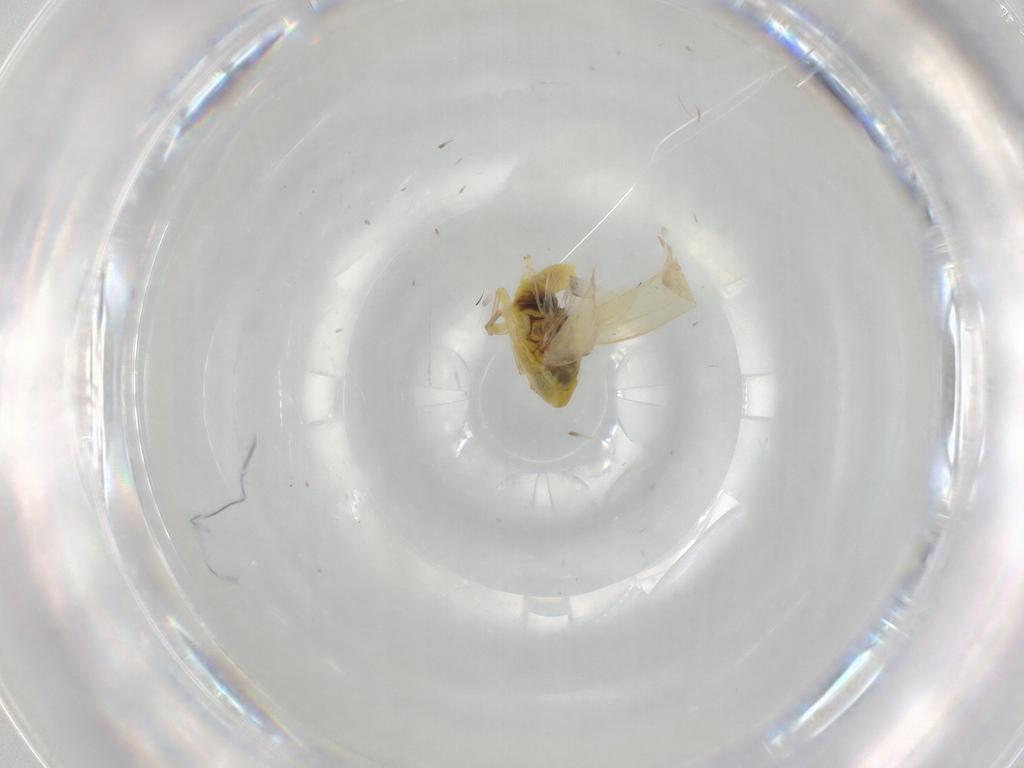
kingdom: Animalia
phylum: Arthropoda
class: Insecta
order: Hemiptera
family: Cicadellidae
